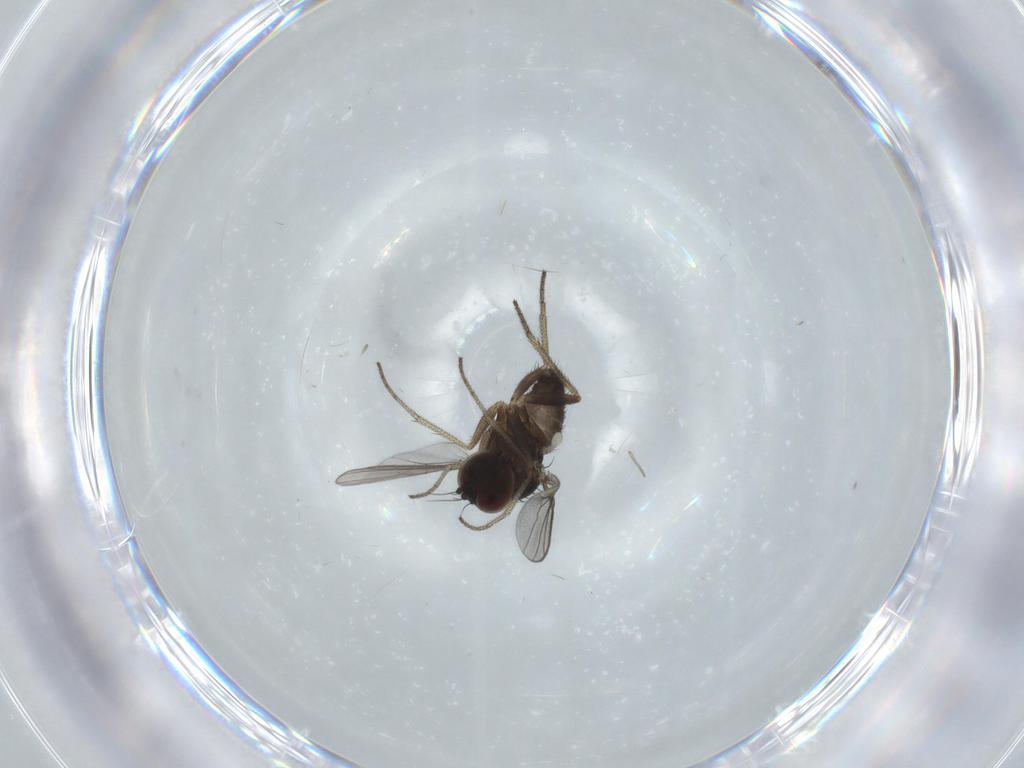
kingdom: Animalia
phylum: Arthropoda
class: Insecta
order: Diptera
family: Dolichopodidae
